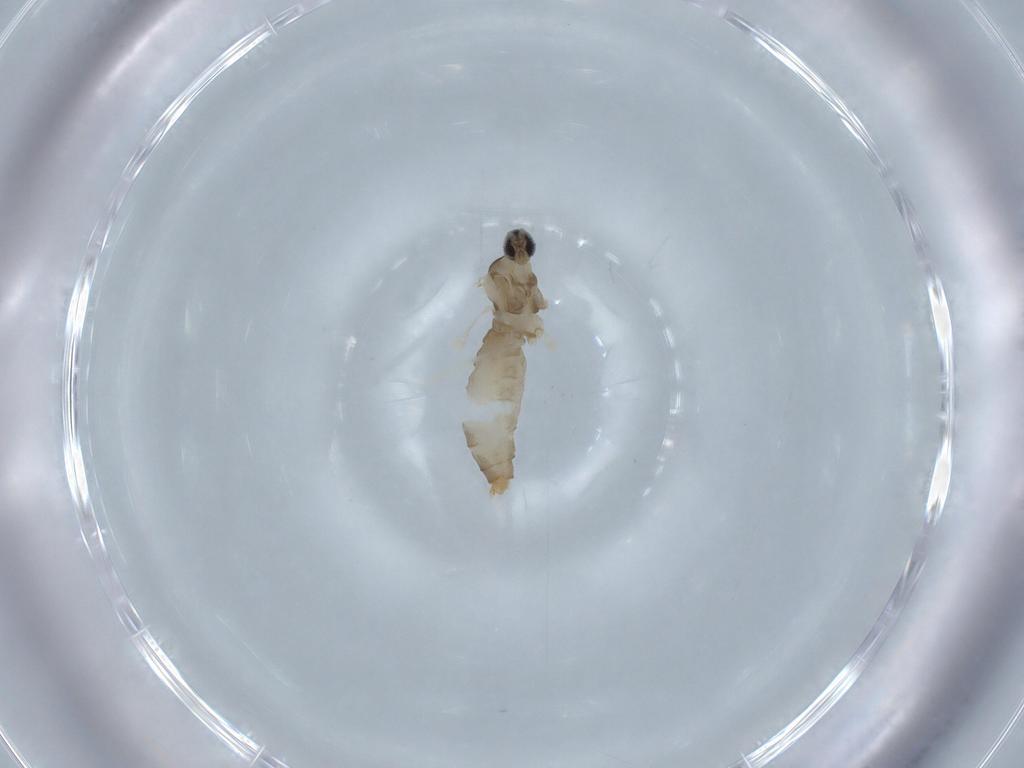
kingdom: Animalia
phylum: Arthropoda
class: Insecta
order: Diptera
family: Cecidomyiidae
